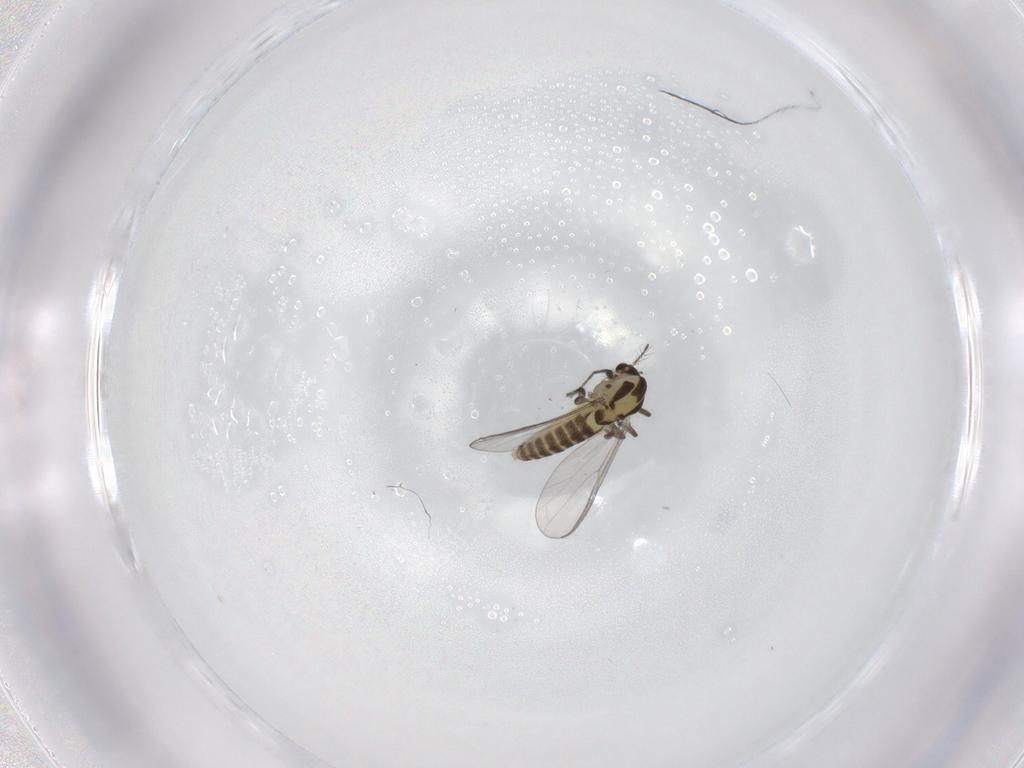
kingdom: Animalia
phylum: Arthropoda
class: Insecta
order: Diptera
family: Chironomidae
